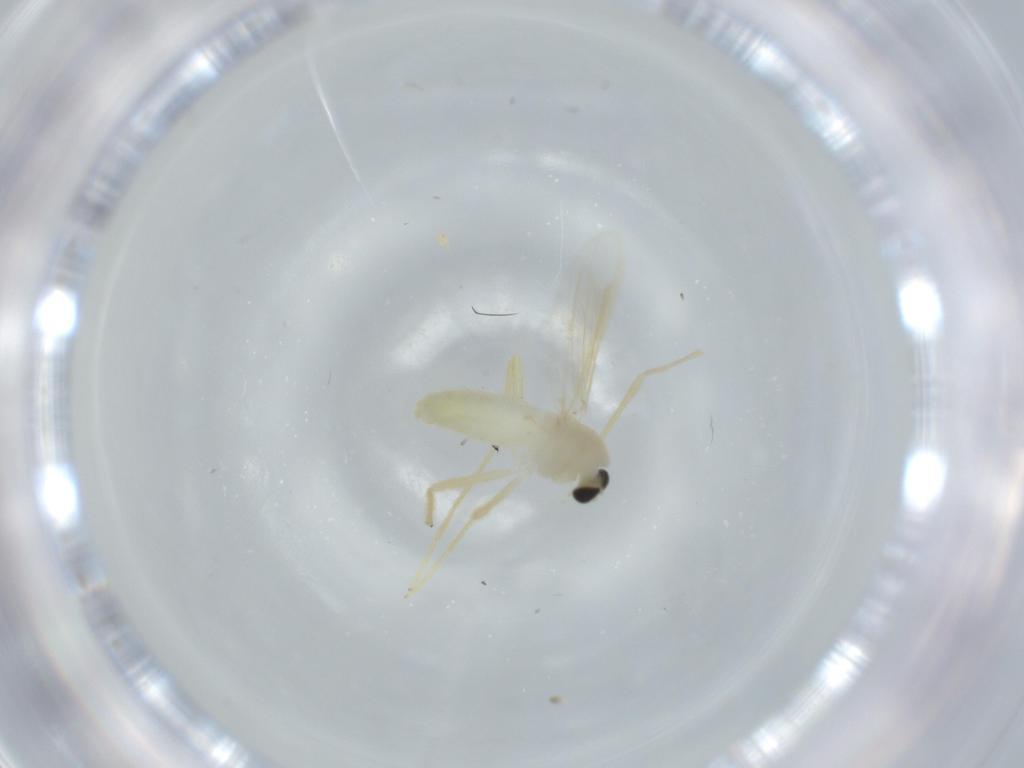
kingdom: Animalia
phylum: Arthropoda
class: Insecta
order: Diptera
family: Chironomidae
